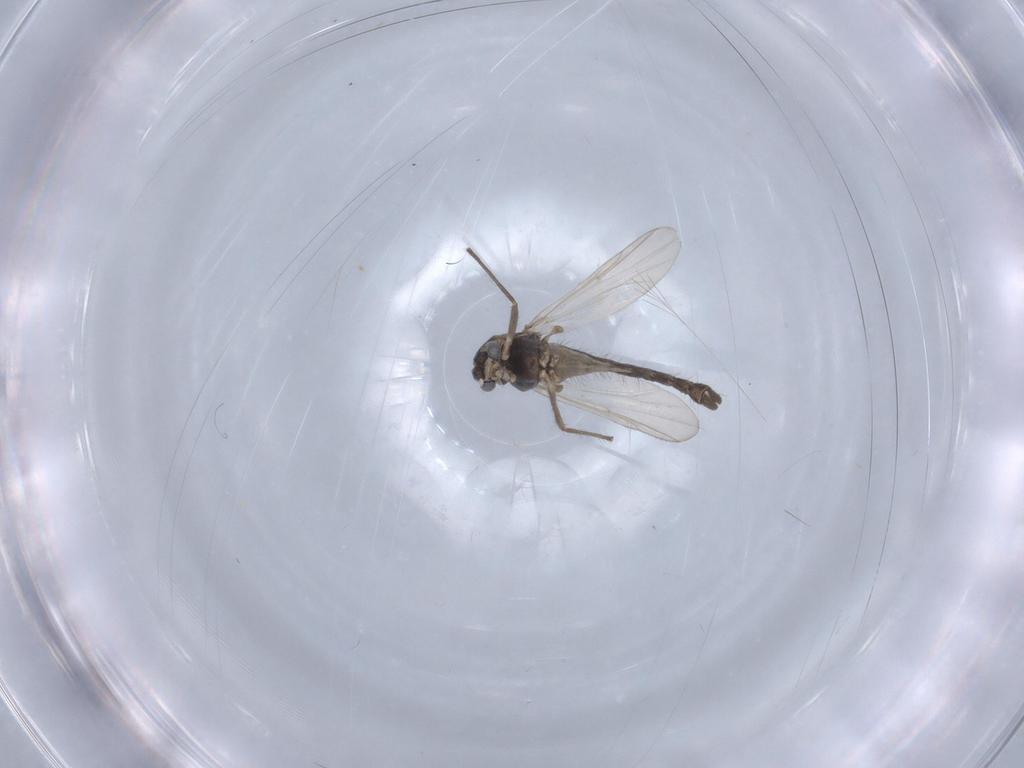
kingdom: Animalia
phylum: Arthropoda
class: Insecta
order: Diptera
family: Chironomidae
